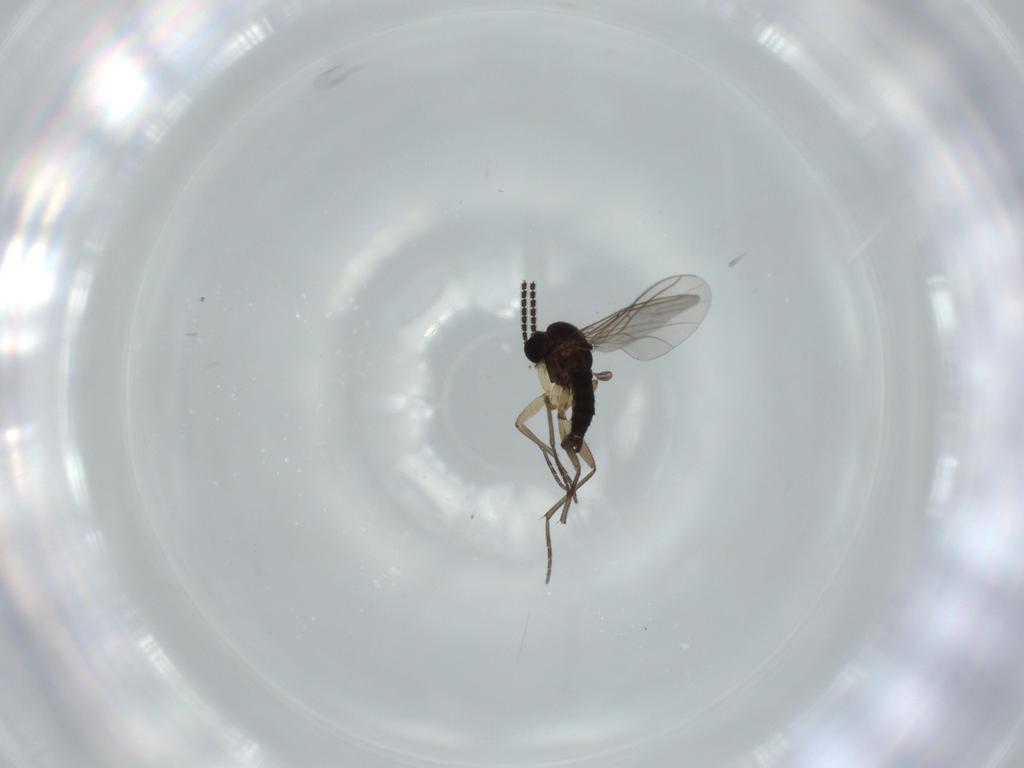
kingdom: Animalia
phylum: Arthropoda
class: Insecta
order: Diptera
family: Sciaridae
